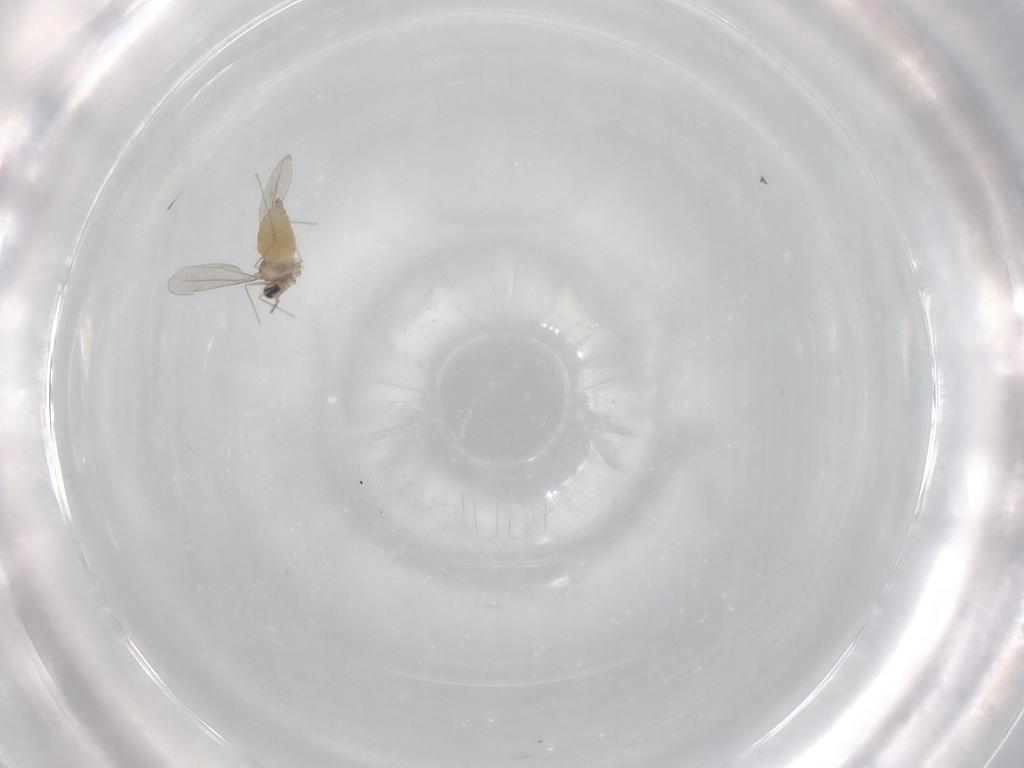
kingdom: Animalia
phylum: Arthropoda
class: Insecta
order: Diptera
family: Cecidomyiidae
